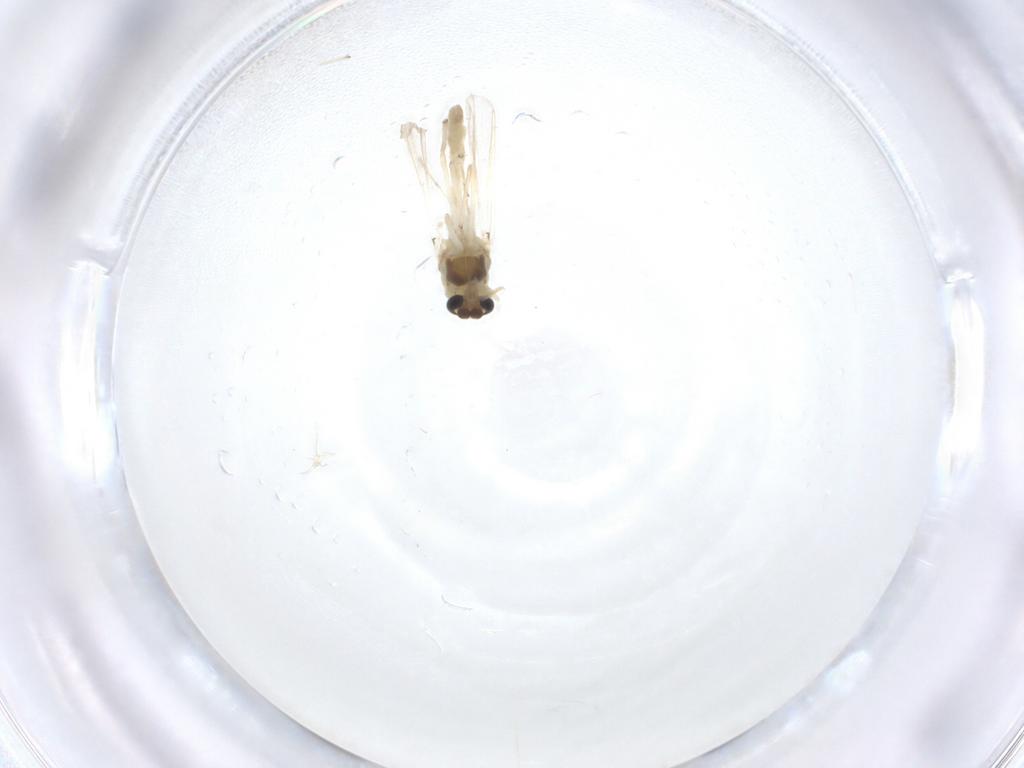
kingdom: Animalia
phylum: Arthropoda
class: Insecta
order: Diptera
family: Chironomidae
